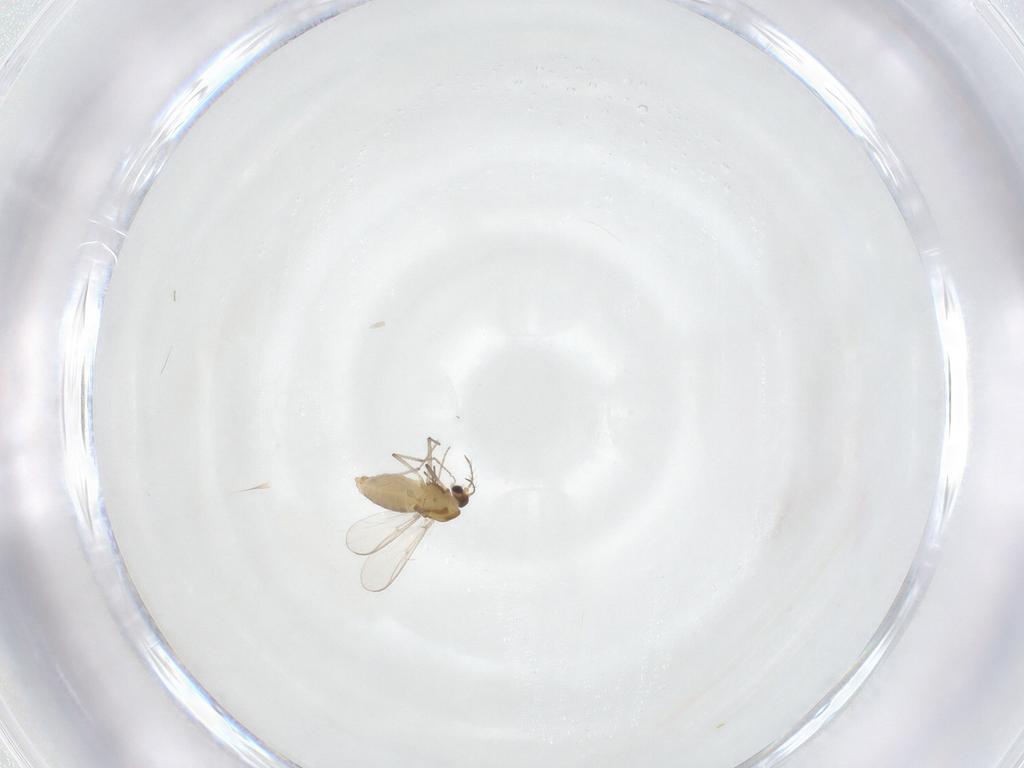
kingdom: Animalia
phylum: Arthropoda
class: Insecta
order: Diptera
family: Chironomidae
